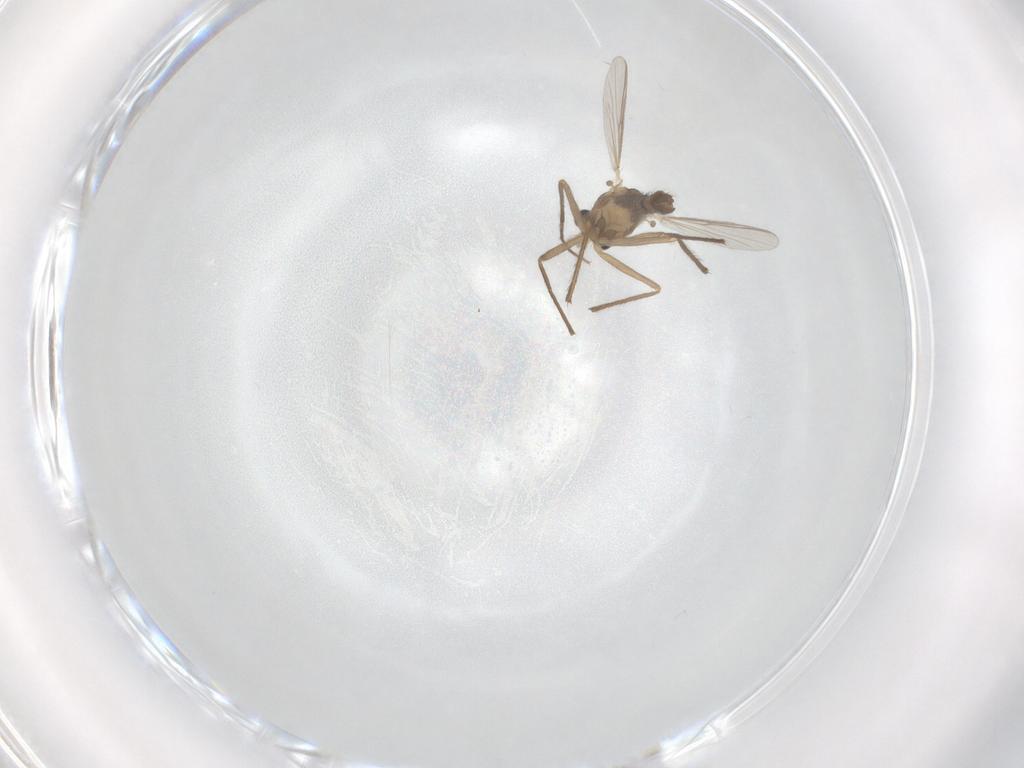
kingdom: Animalia
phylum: Arthropoda
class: Insecta
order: Diptera
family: Chironomidae
